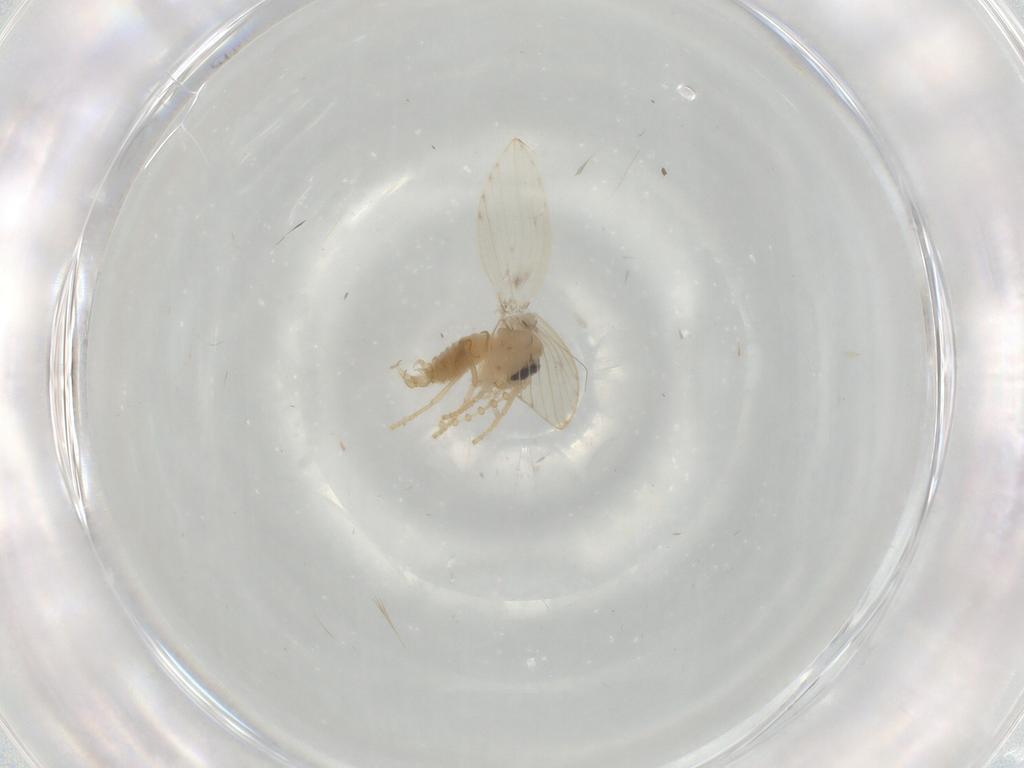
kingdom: Animalia
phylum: Arthropoda
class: Insecta
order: Diptera
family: Psychodidae
